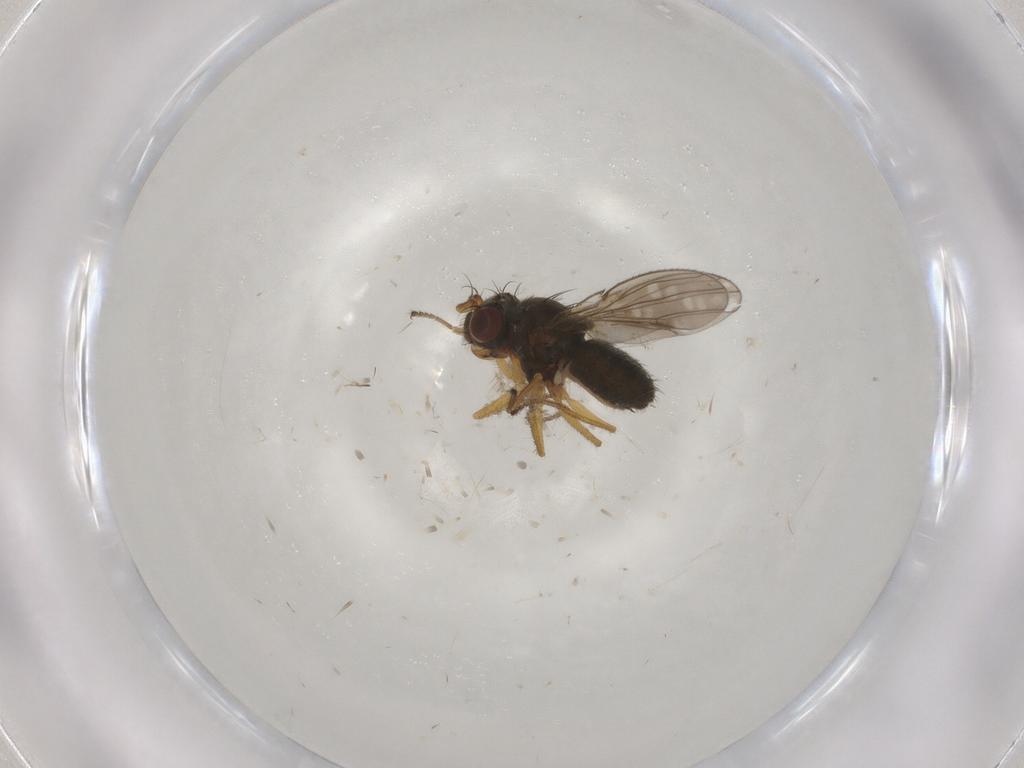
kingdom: Animalia
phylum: Arthropoda
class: Insecta
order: Diptera
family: Ephydridae
